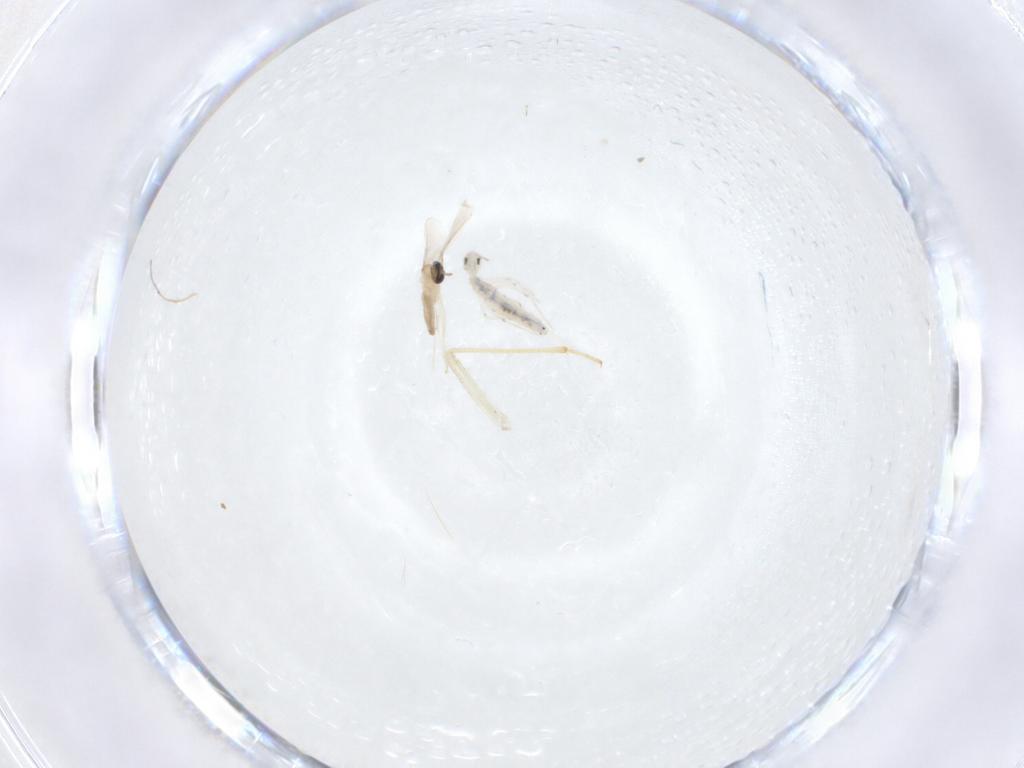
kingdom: Animalia
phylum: Arthropoda
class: Insecta
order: Diptera
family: Cecidomyiidae
